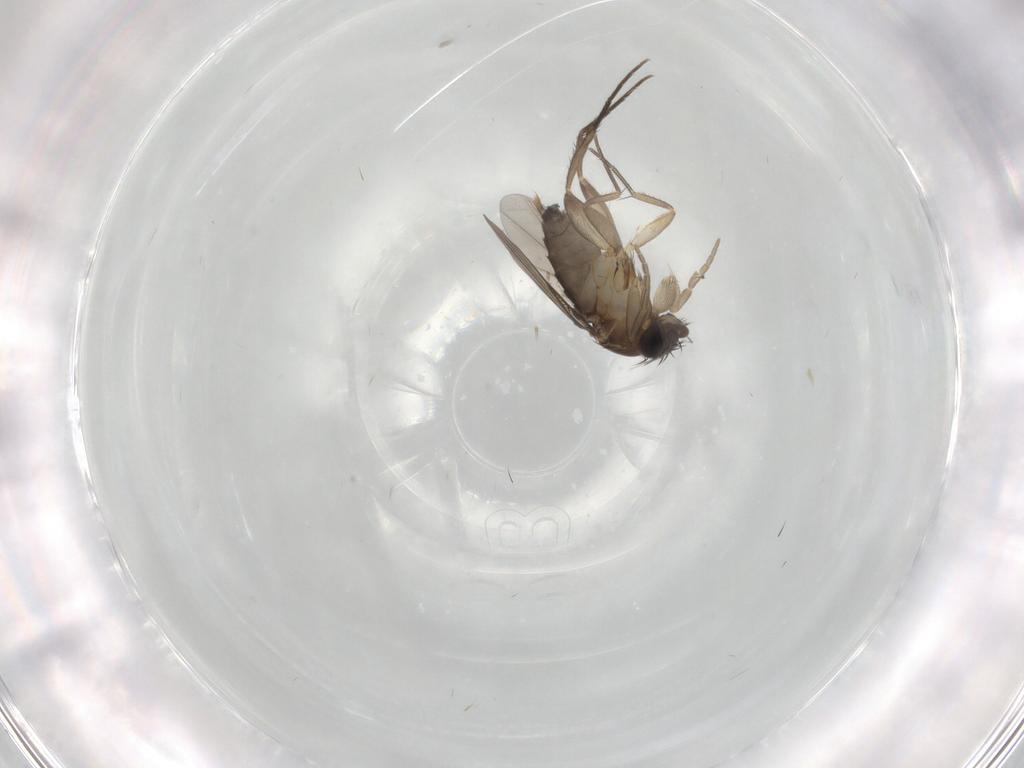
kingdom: Animalia
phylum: Arthropoda
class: Insecta
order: Diptera
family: Phoridae
